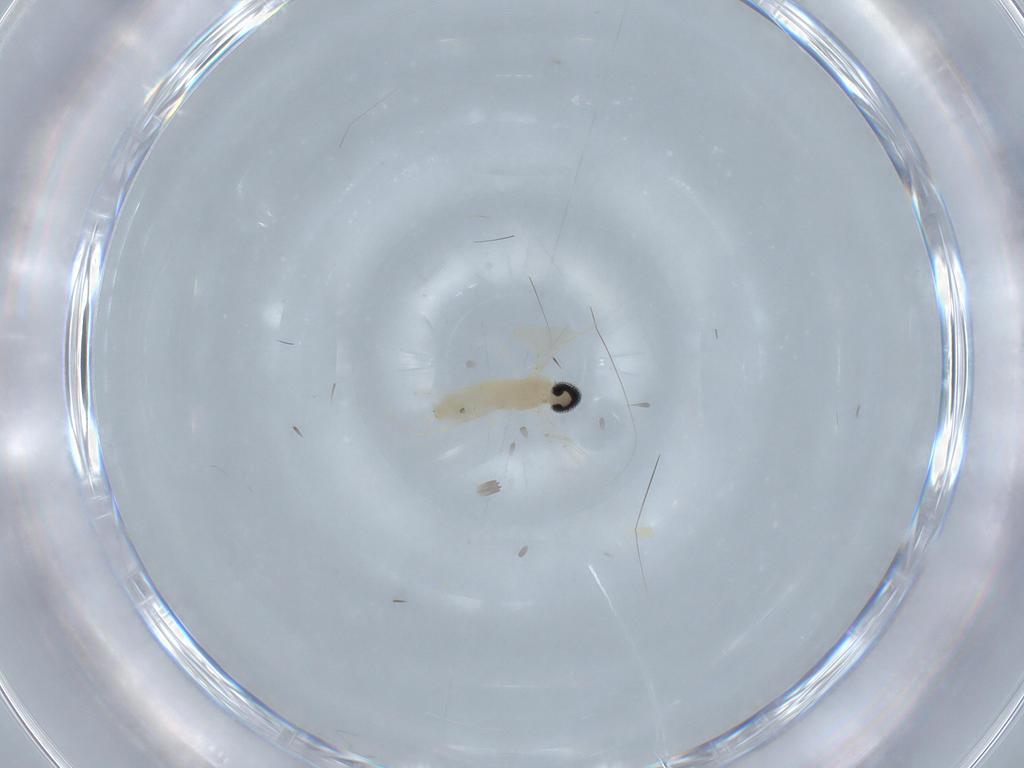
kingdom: Animalia
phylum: Arthropoda
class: Insecta
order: Diptera
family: Cecidomyiidae
